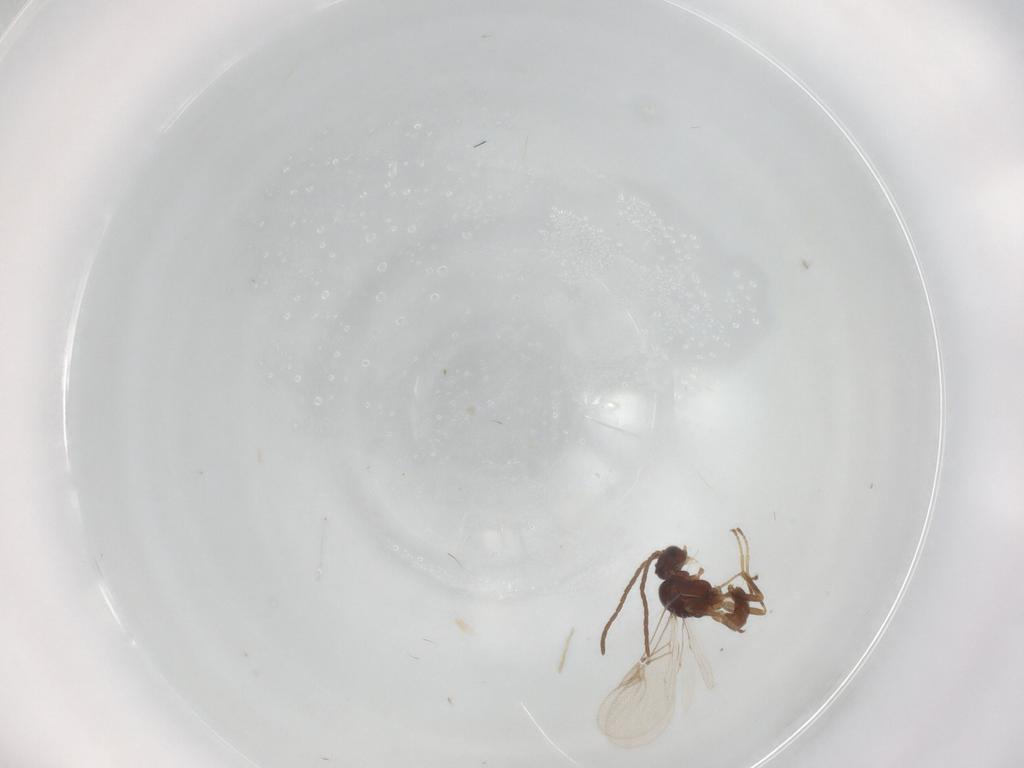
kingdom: Animalia
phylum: Arthropoda
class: Insecta
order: Hymenoptera
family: Braconidae
